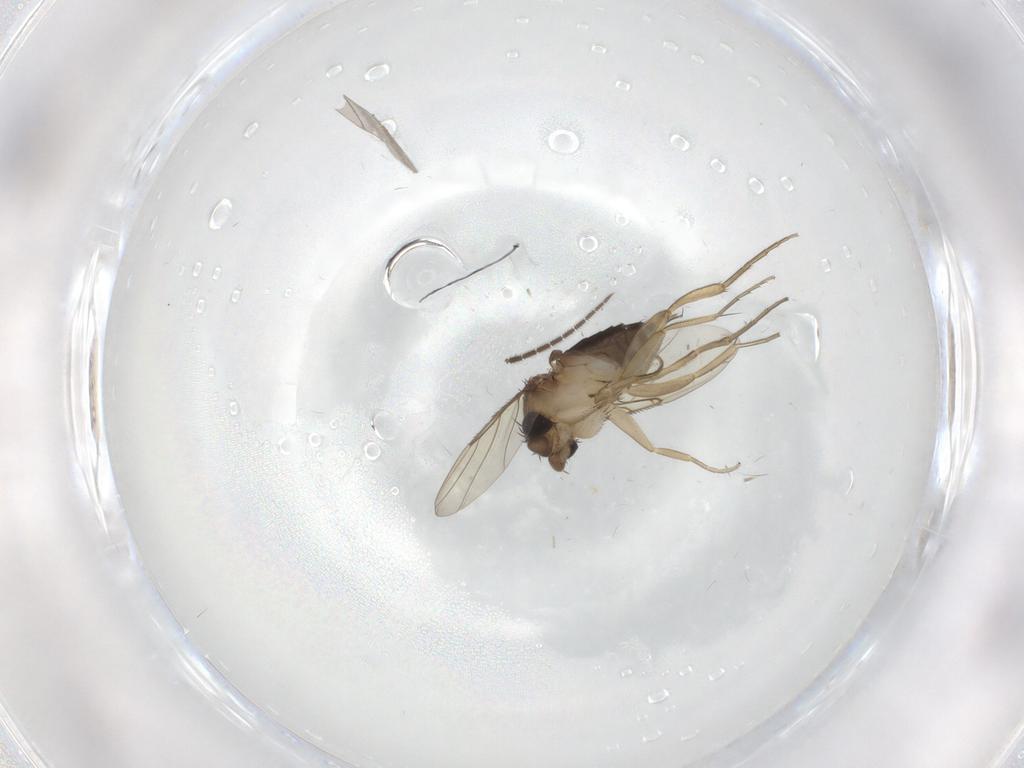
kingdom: Animalia
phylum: Arthropoda
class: Insecta
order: Diptera
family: Phoridae
